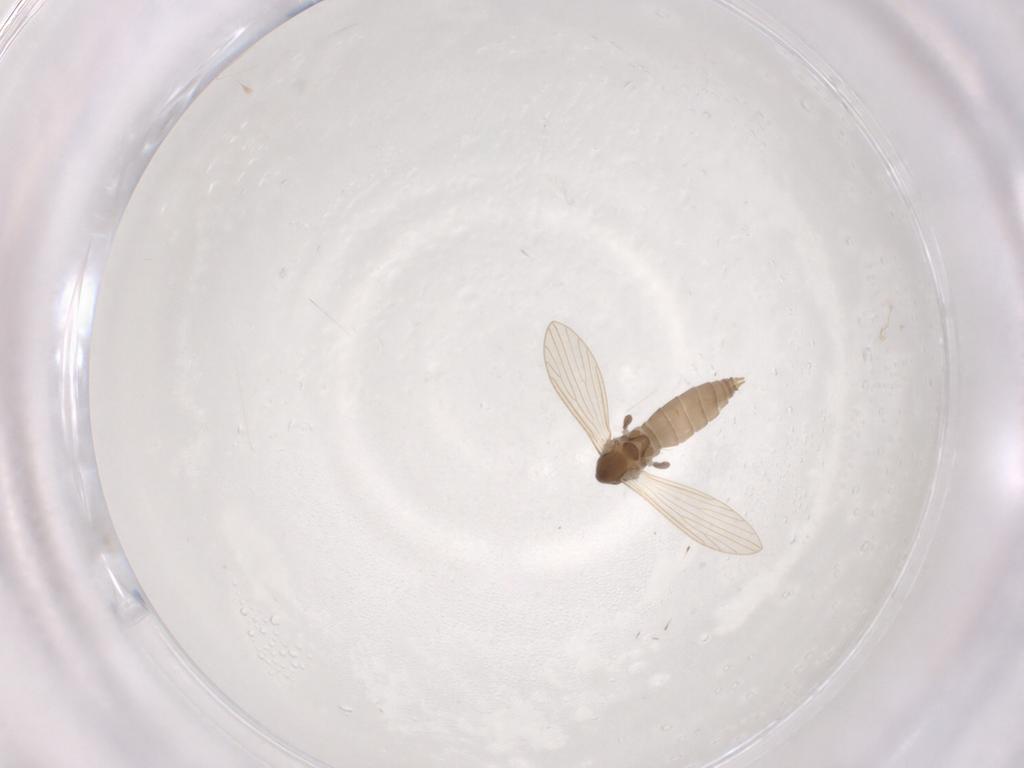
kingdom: Animalia
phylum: Arthropoda
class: Insecta
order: Diptera
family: Psychodidae
